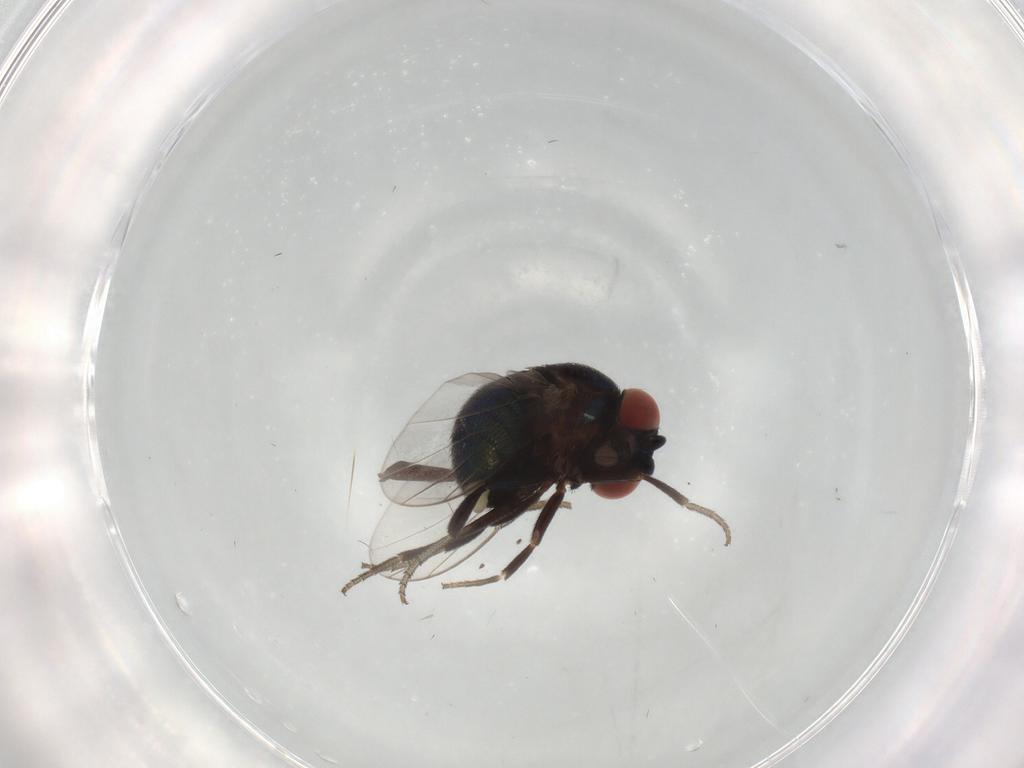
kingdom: Animalia
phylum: Arthropoda
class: Insecta
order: Diptera
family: Cryptochetidae
